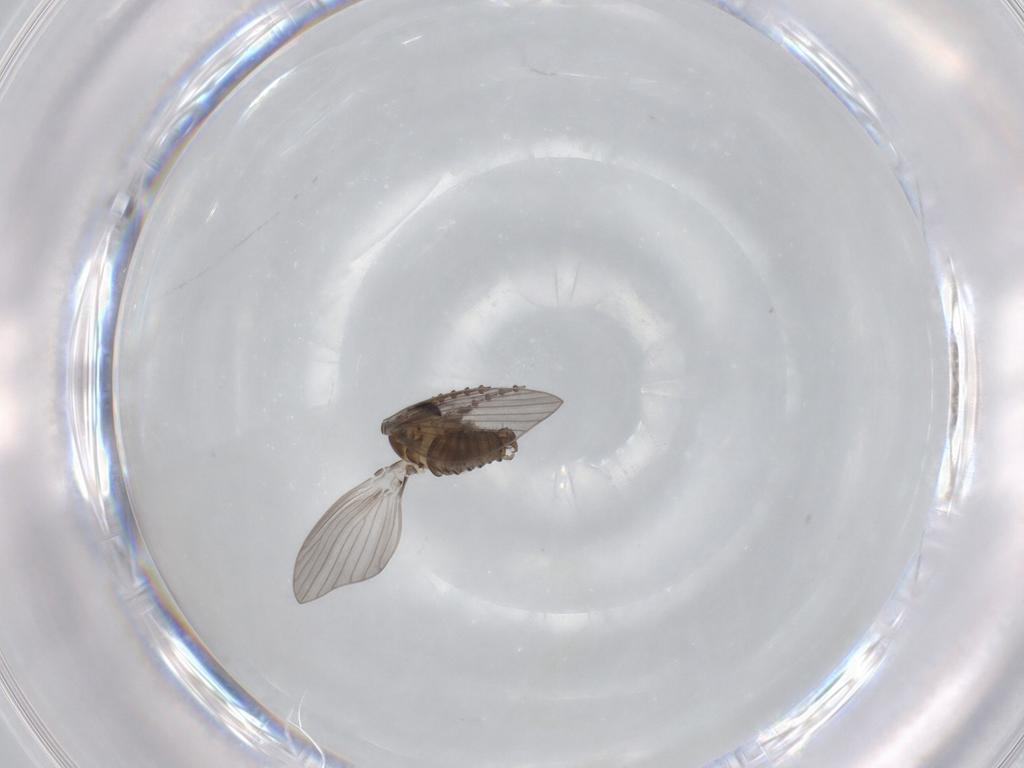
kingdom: Animalia
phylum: Arthropoda
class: Insecta
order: Diptera
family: Psychodidae
